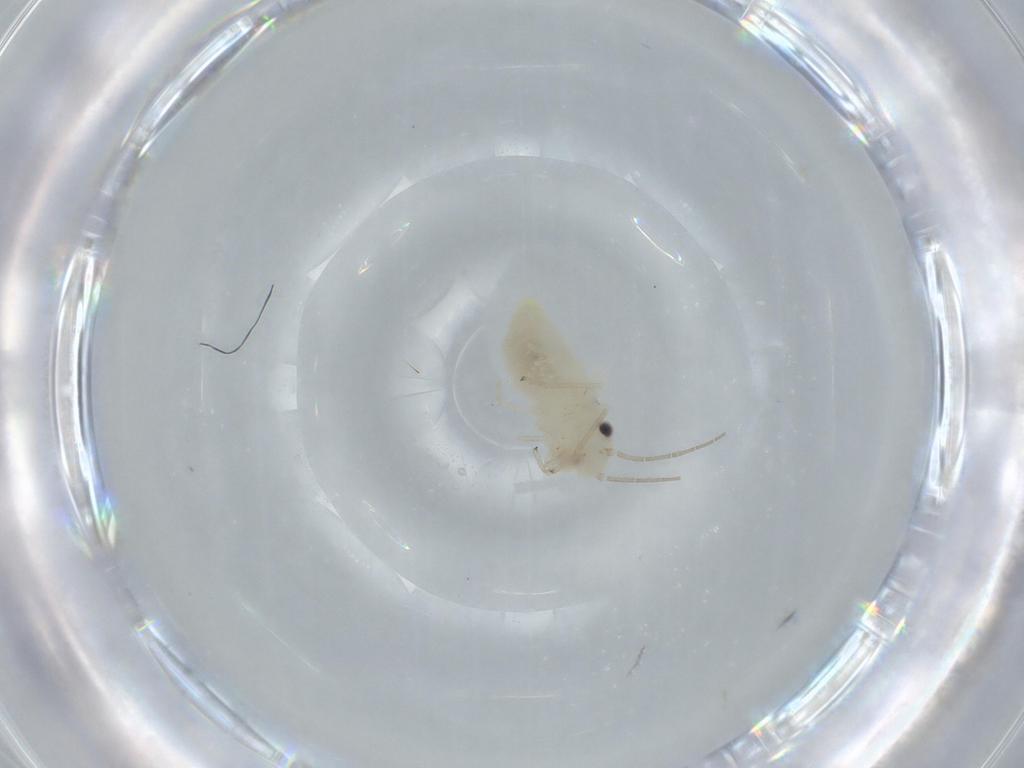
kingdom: Animalia
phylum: Arthropoda
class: Insecta
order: Psocodea
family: Caeciliusidae
